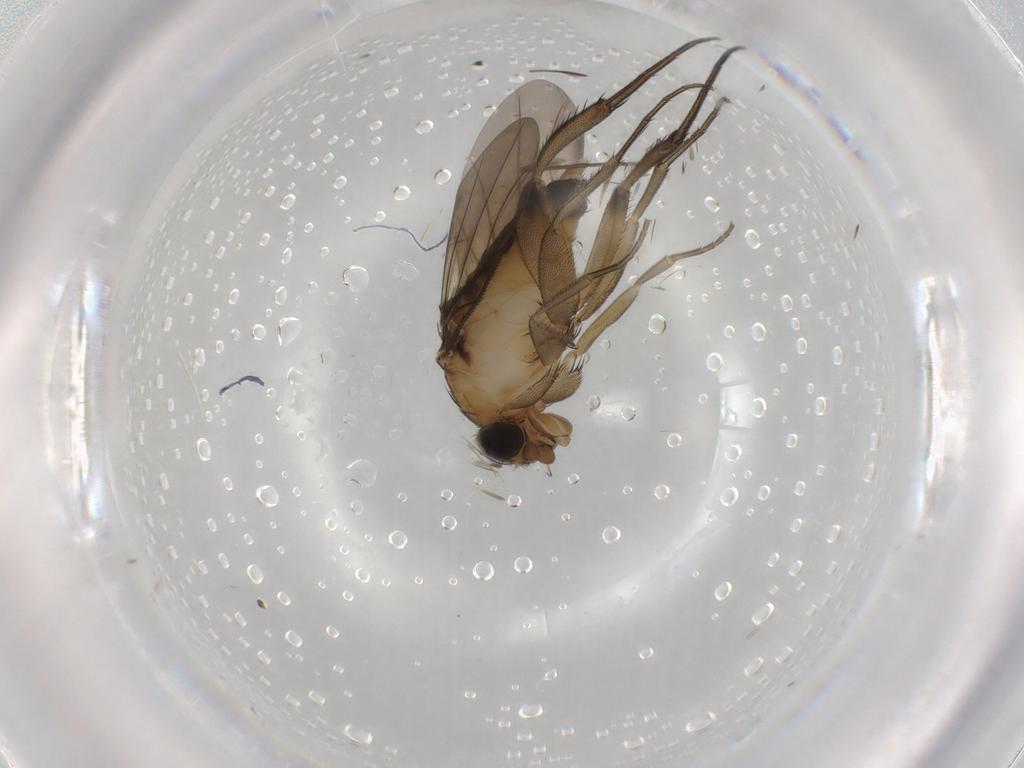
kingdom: Animalia
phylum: Arthropoda
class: Insecta
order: Diptera
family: Phoridae
